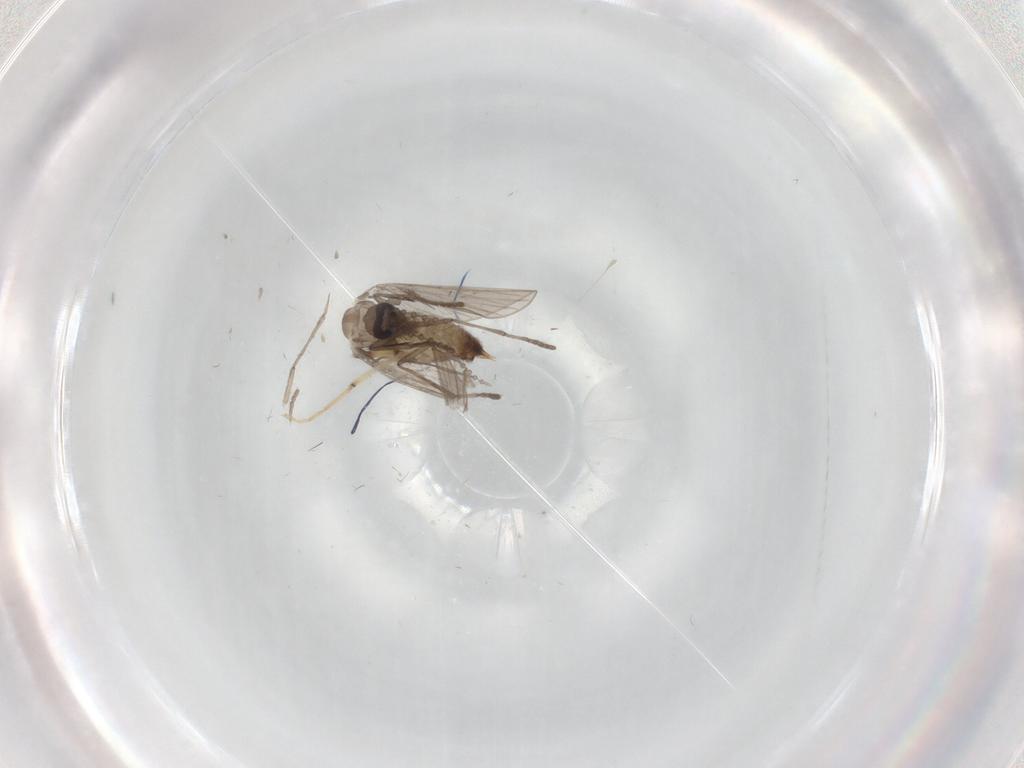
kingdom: Animalia
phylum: Arthropoda
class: Insecta
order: Diptera
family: Psychodidae
